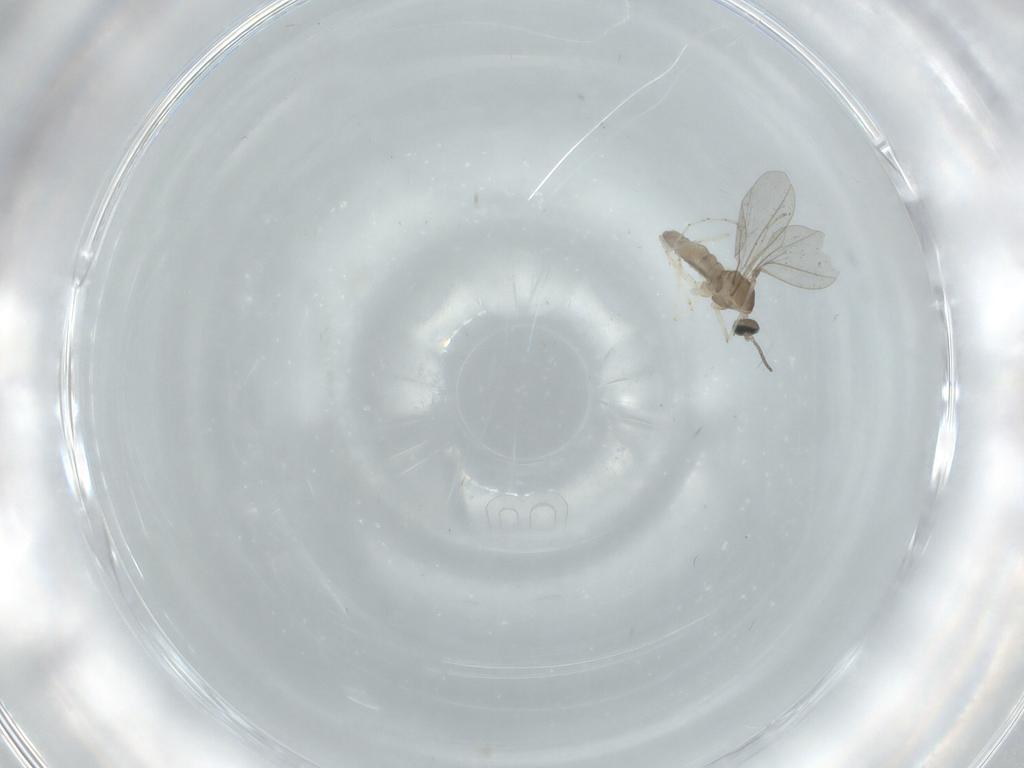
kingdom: Animalia
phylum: Arthropoda
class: Insecta
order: Diptera
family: Cecidomyiidae
